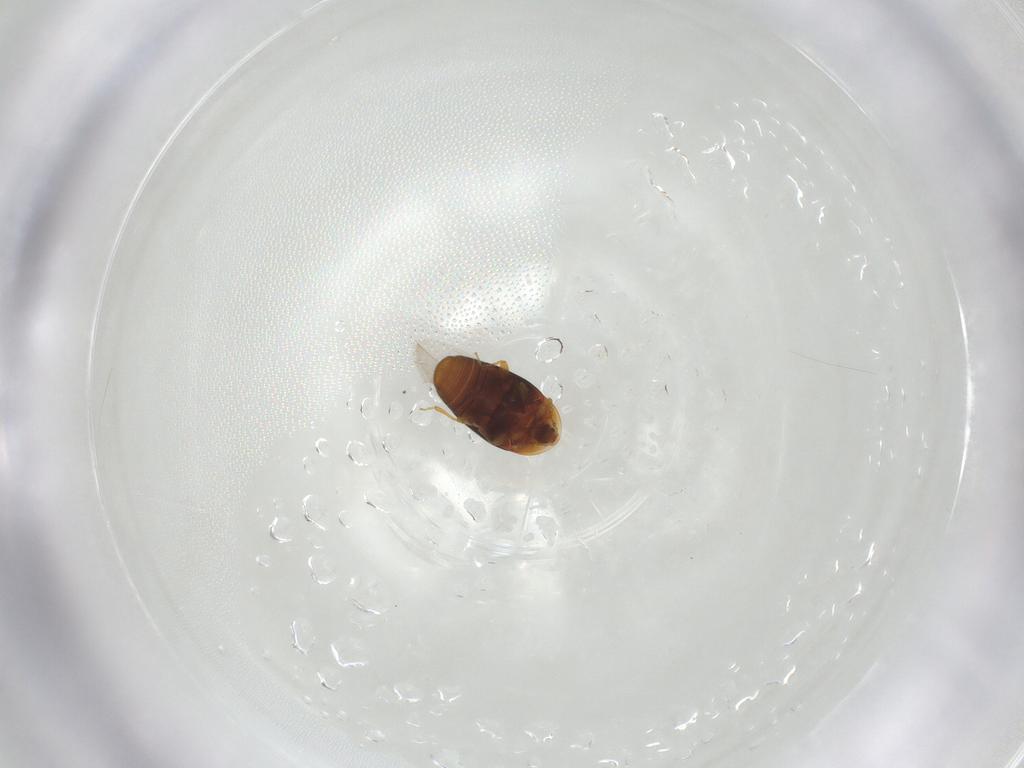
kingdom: Animalia
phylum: Arthropoda
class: Insecta
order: Coleoptera
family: Corylophidae
